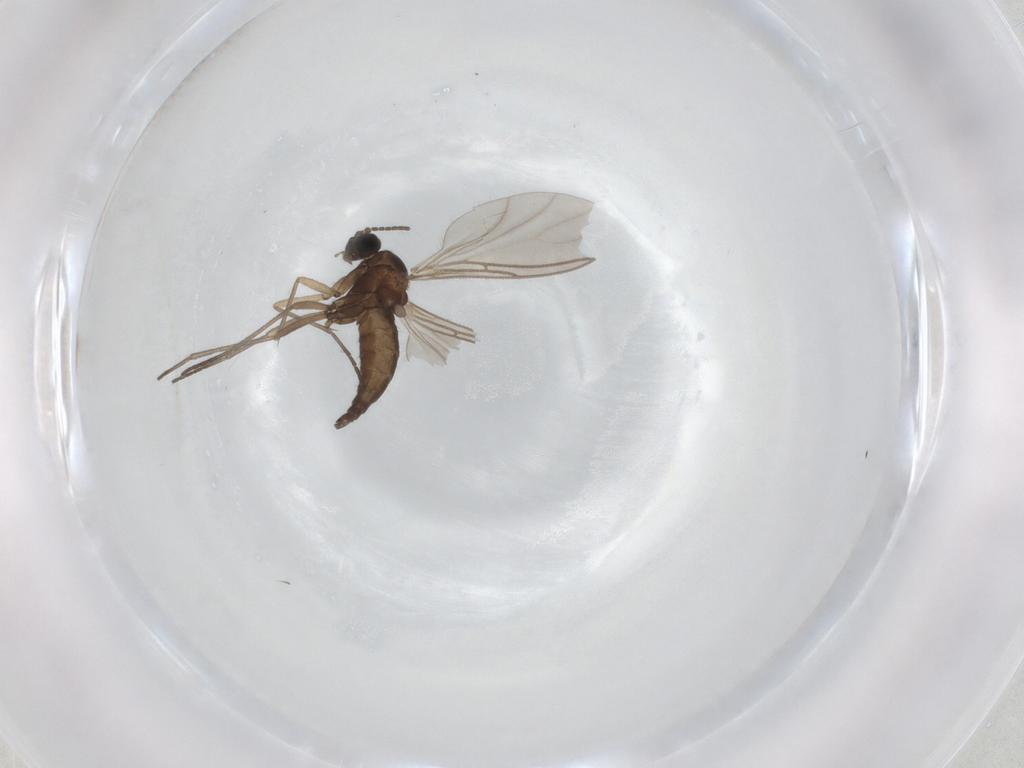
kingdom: Animalia
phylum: Arthropoda
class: Insecta
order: Diptera
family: Sciaridae
